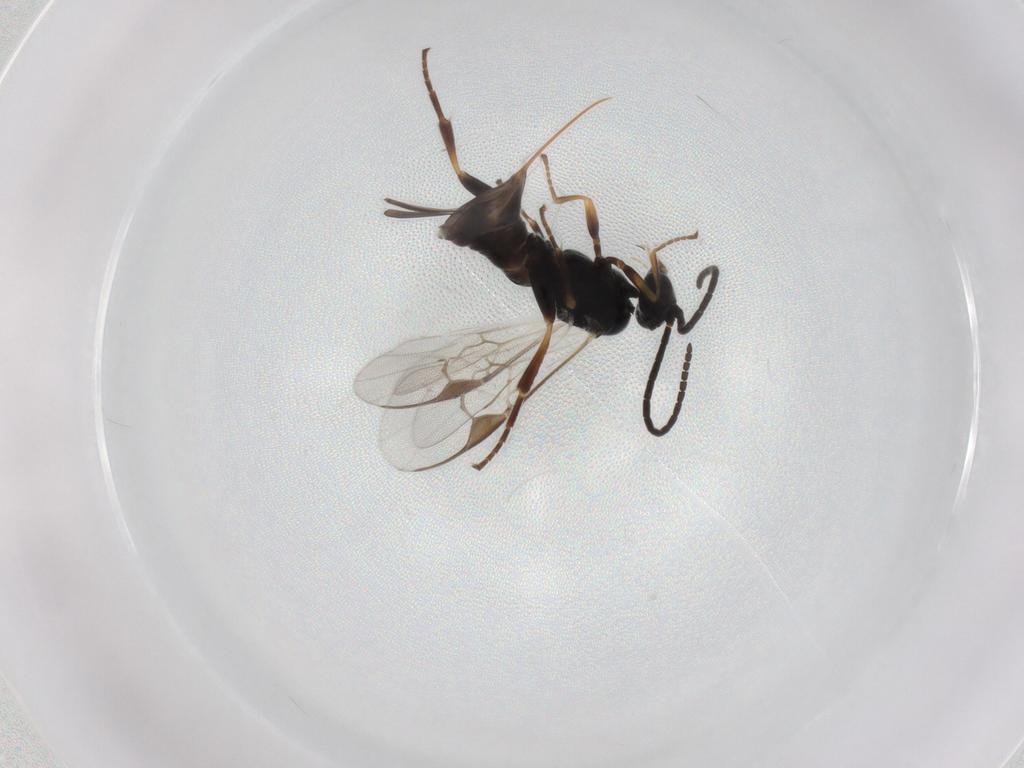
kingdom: Animalia
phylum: Arthropoda
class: Insecta
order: Hymenoptera
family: Braconidae
